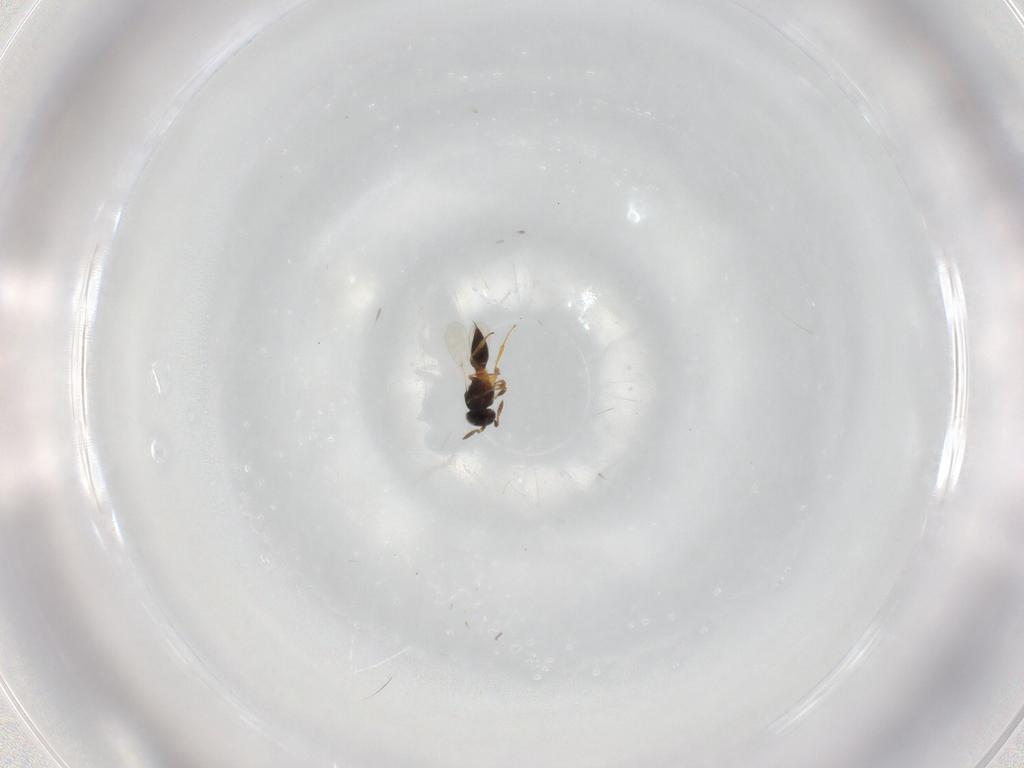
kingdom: Animalia
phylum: Arthropoda
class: Insecta
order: Hymenoptera
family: Platygastridae
